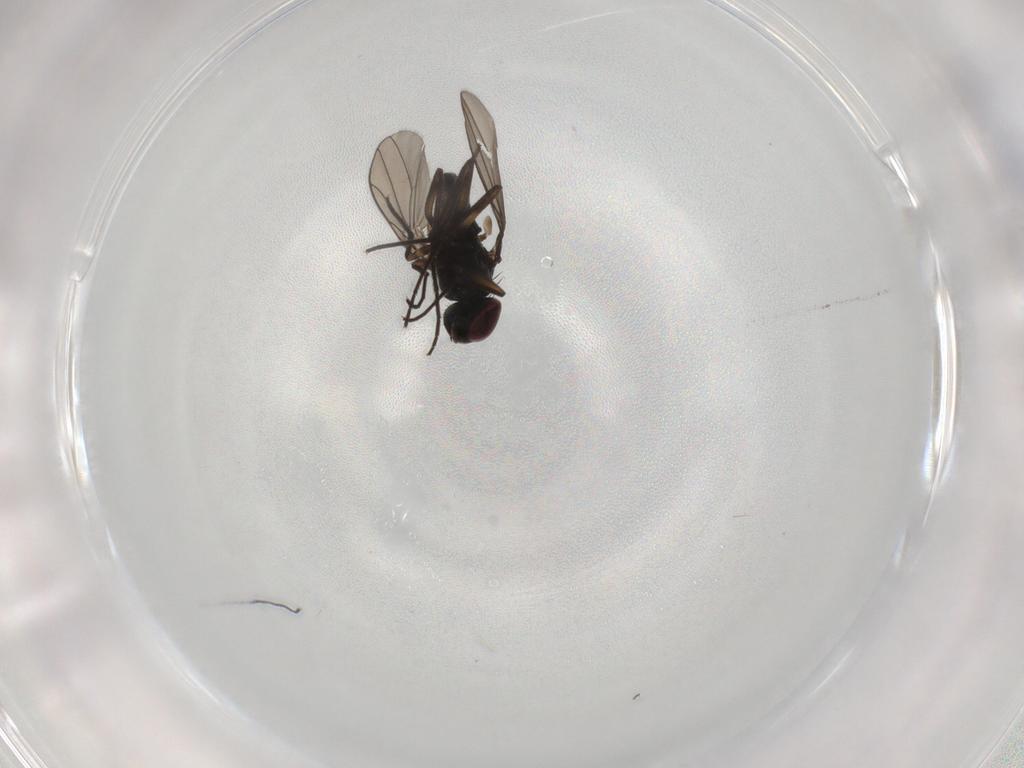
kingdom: Animalia
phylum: Arthropoda
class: Insecta
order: Diptera
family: Dolichopodidae
